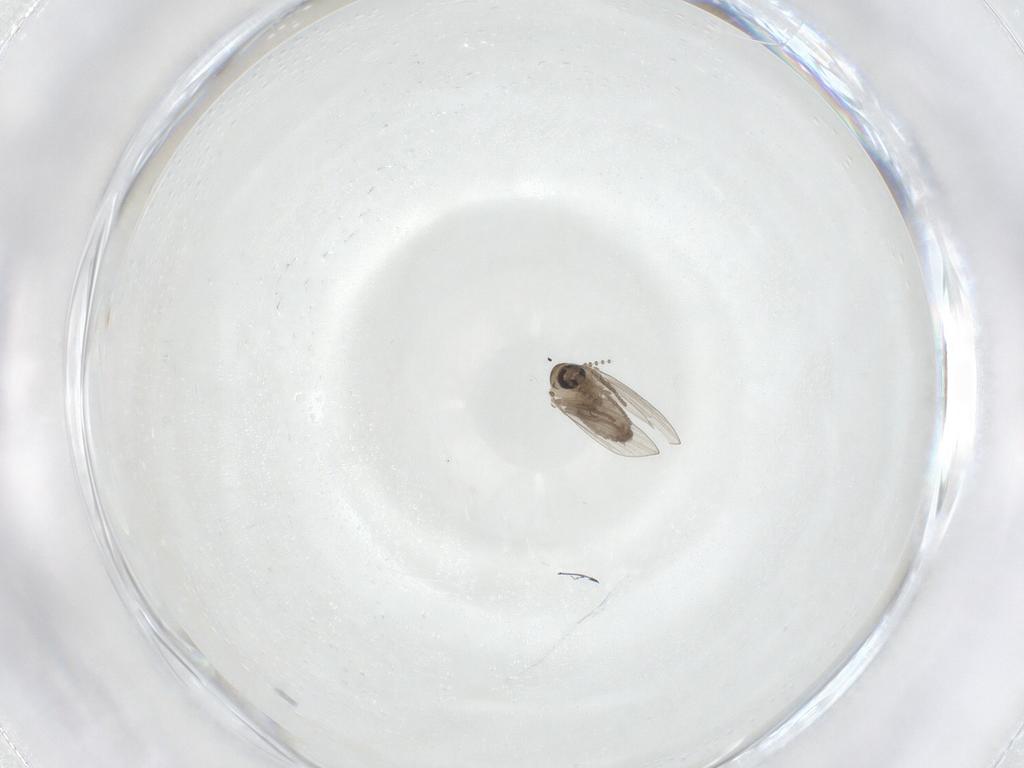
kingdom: Animalia
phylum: Arthropoda
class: Insecta
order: Diptera
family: Psychodidae
